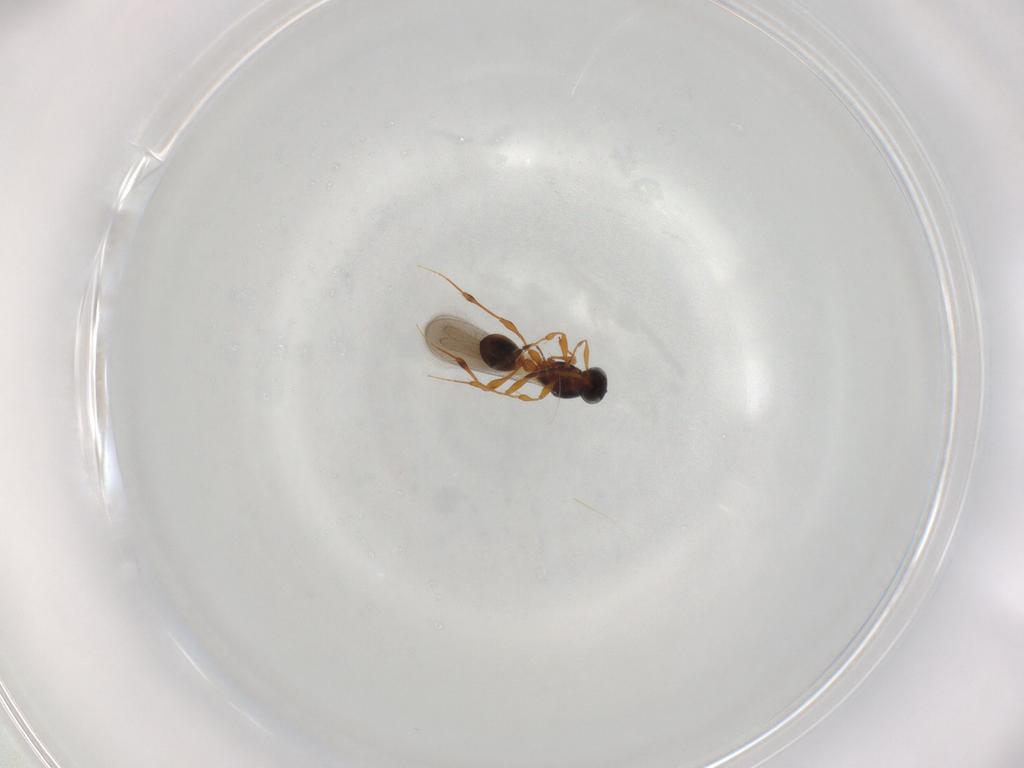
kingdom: Animalia
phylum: Arthropoda
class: Insecta
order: Hymenoptera
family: Platygastridae
